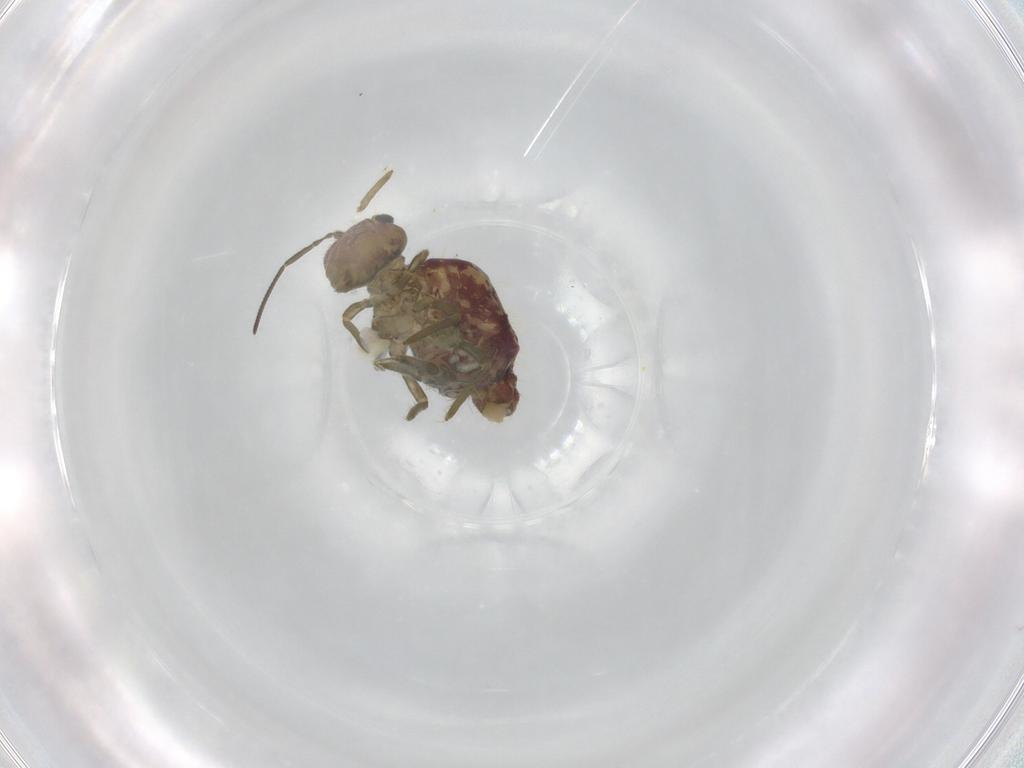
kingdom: Animalia
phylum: Arthropoda
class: Collembola
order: Symphypleona
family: Sminthuridae
